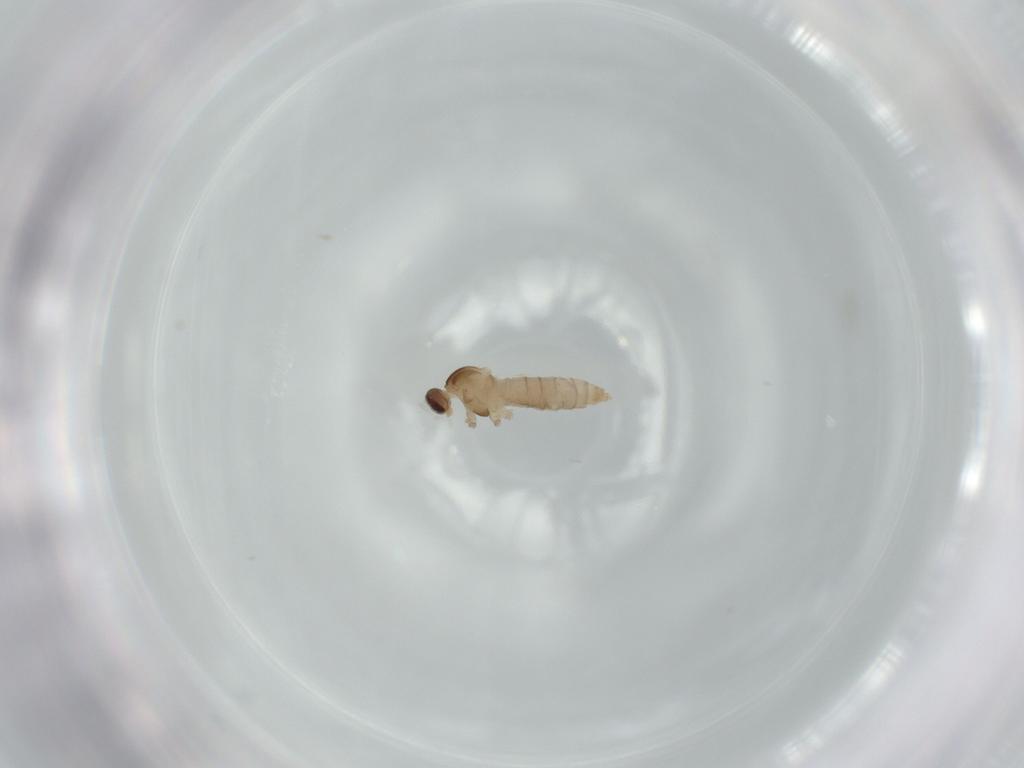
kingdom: Animalia
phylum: Arthropoda
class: Insecta
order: Diptera
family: Cecidomyiidae
